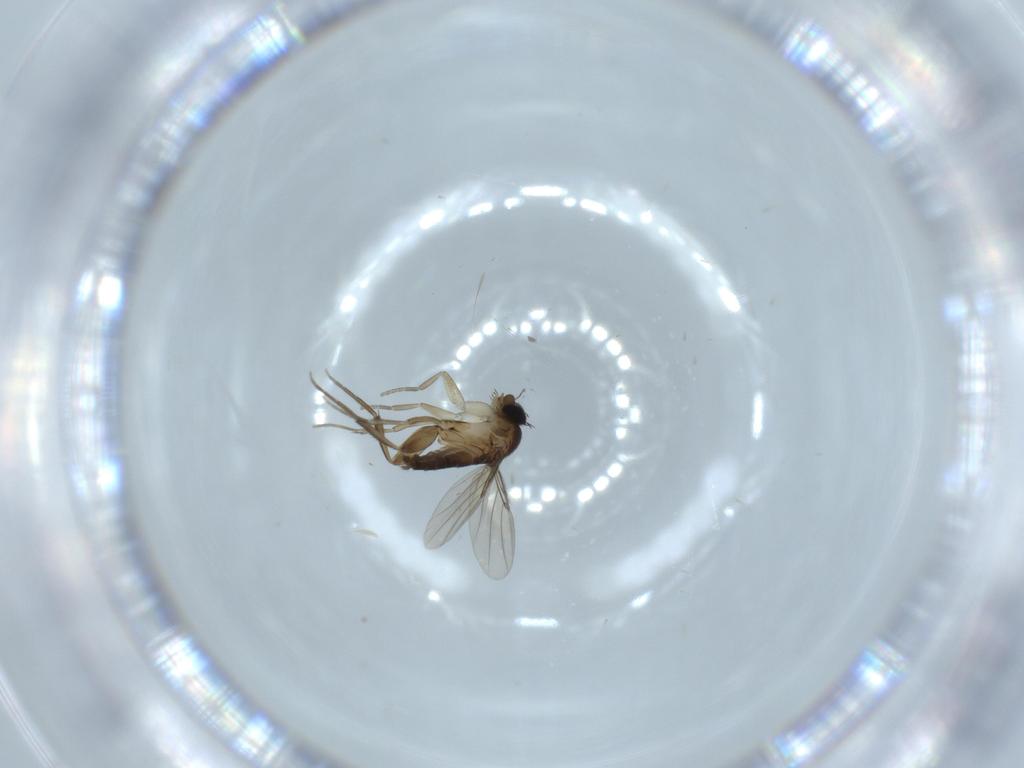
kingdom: Animalia
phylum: Arthropoda
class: Insecta
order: Diptera
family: Phoridae
